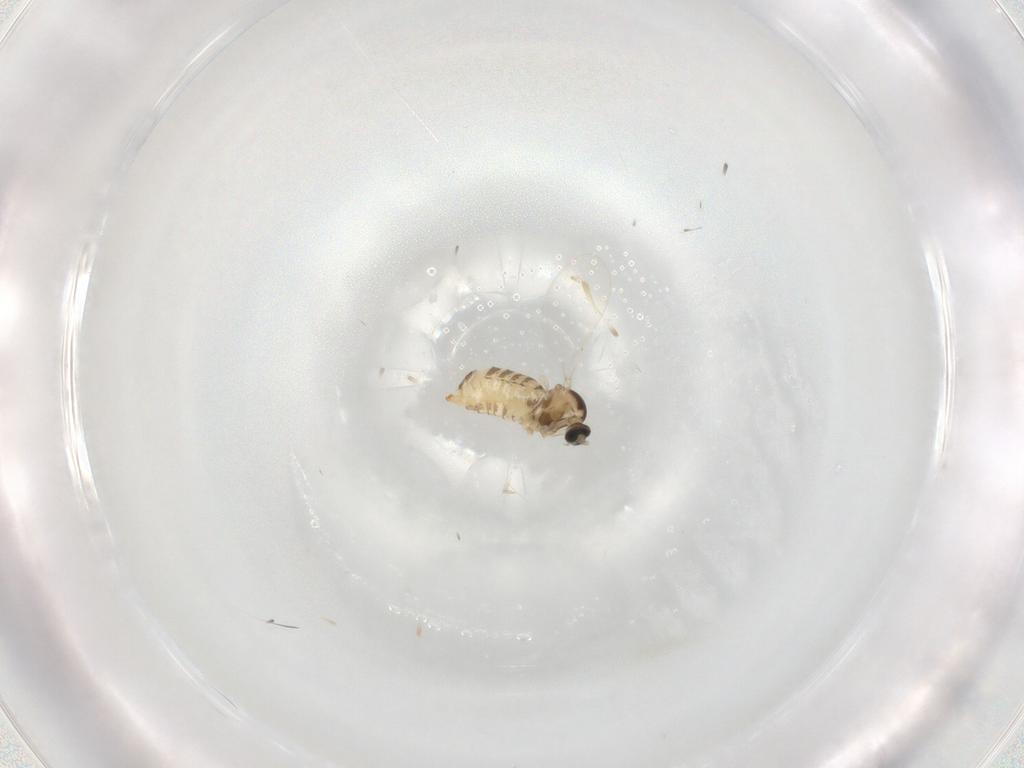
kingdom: Animalia
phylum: Arthropoda
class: Insecta
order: Diptera
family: Cecidomyiidae
